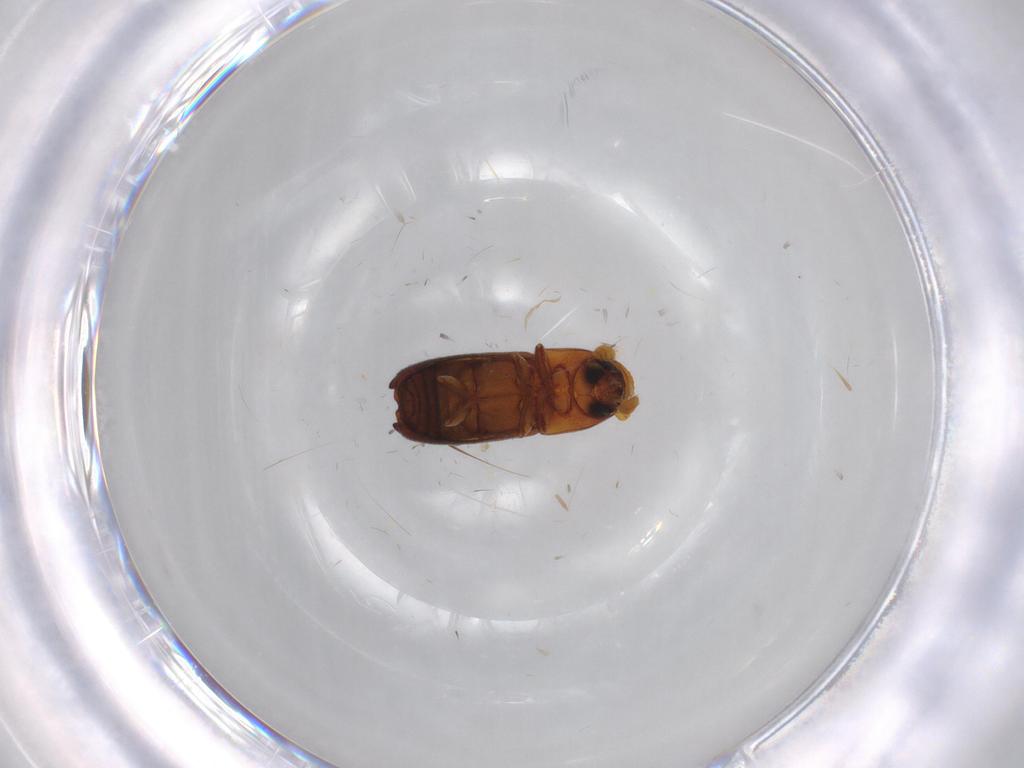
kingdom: Animalia
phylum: Arthropoda
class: Insecta
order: Coleoptera
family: Curculionidae
